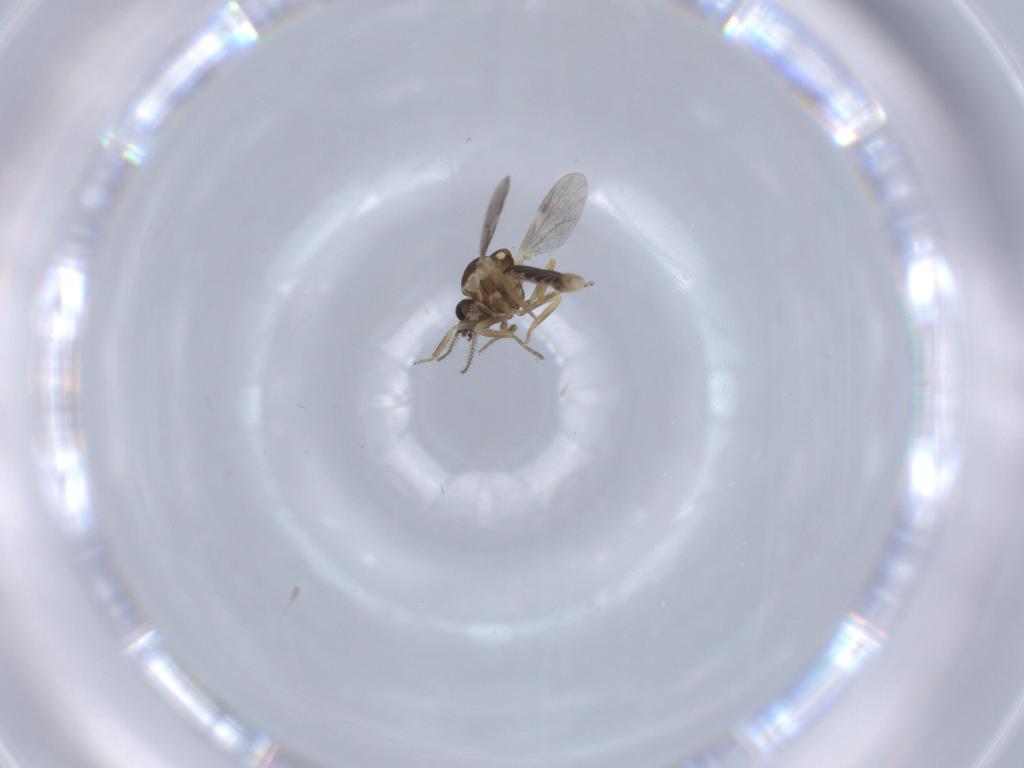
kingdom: Animalia
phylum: Arthropoda
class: Insecta
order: Diptera
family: Ceratopogonidae
